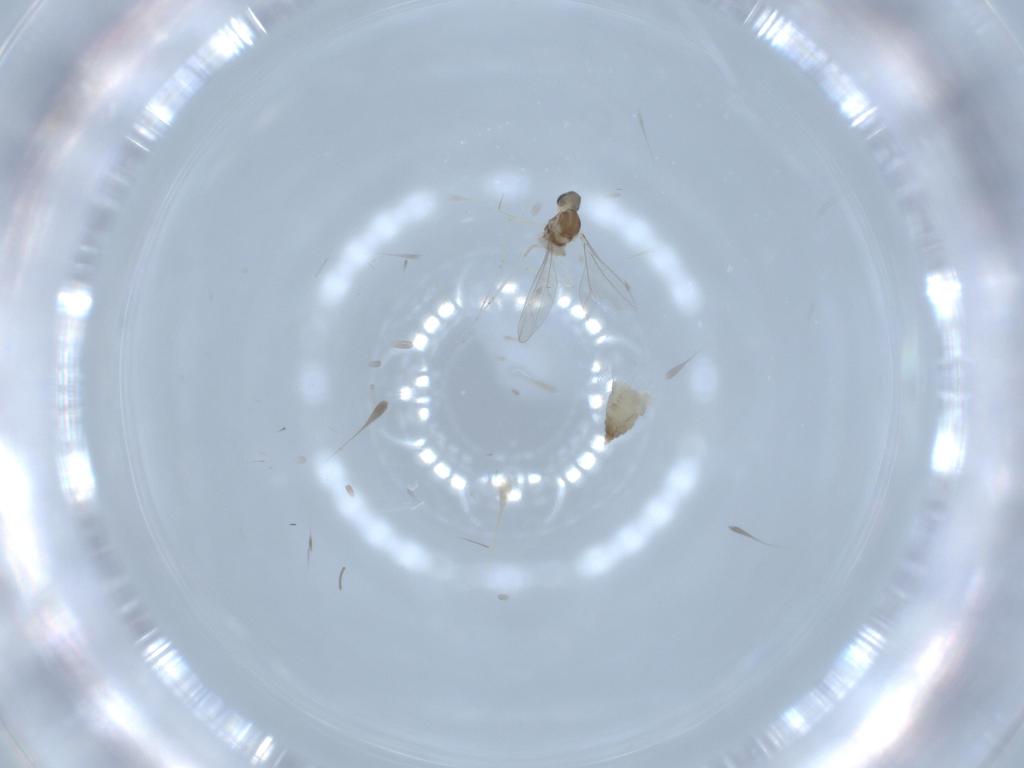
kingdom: Animalia
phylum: Arthropoda
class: Insecta
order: Diptera
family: Cecidomyiidae
